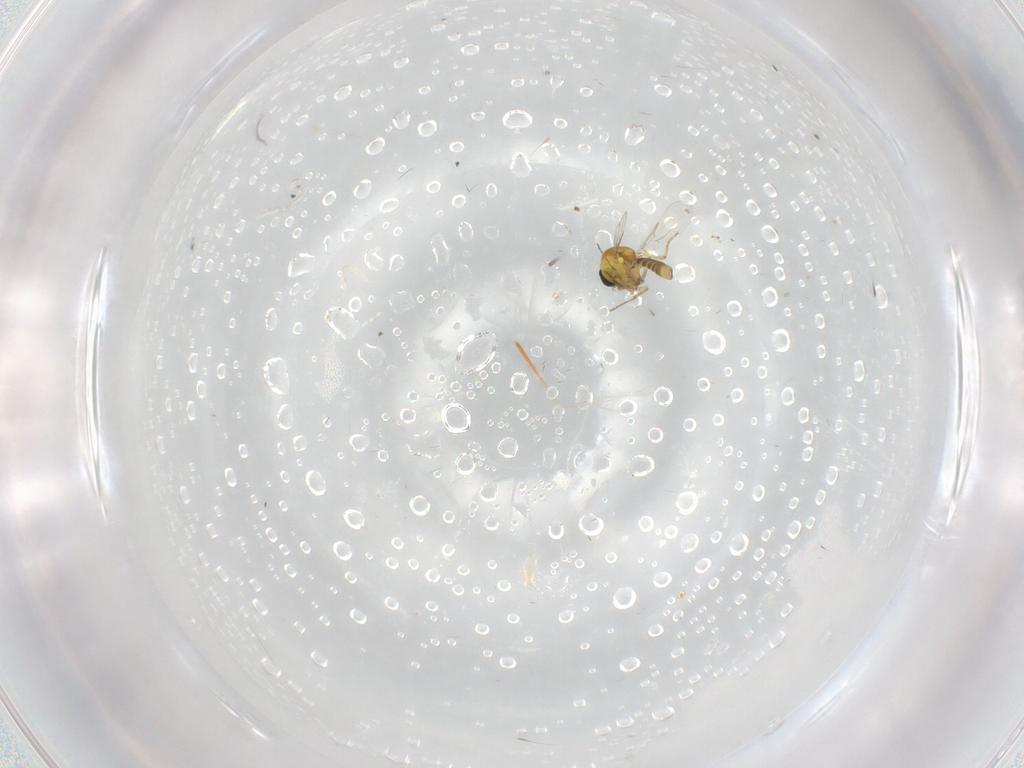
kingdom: Animalia
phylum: Arthropoda
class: Insecta
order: Diptera
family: Ceratopogonidae
